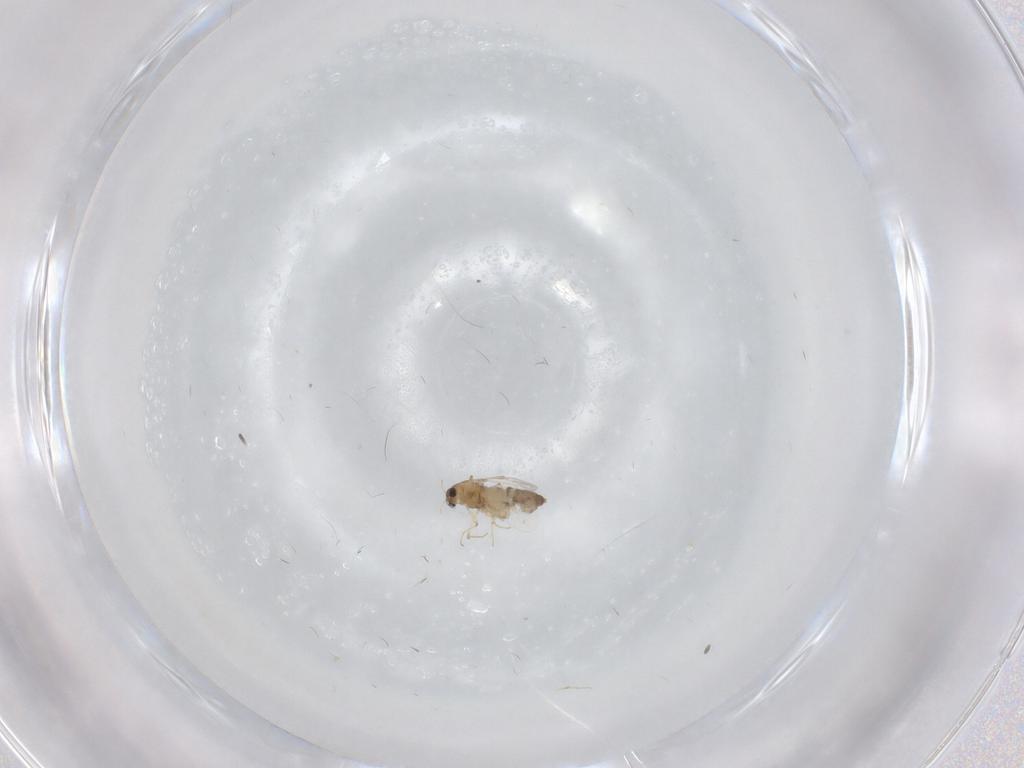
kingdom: Animalia
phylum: Arthropoda
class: Insecta
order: Diptera
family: Chironomidae
